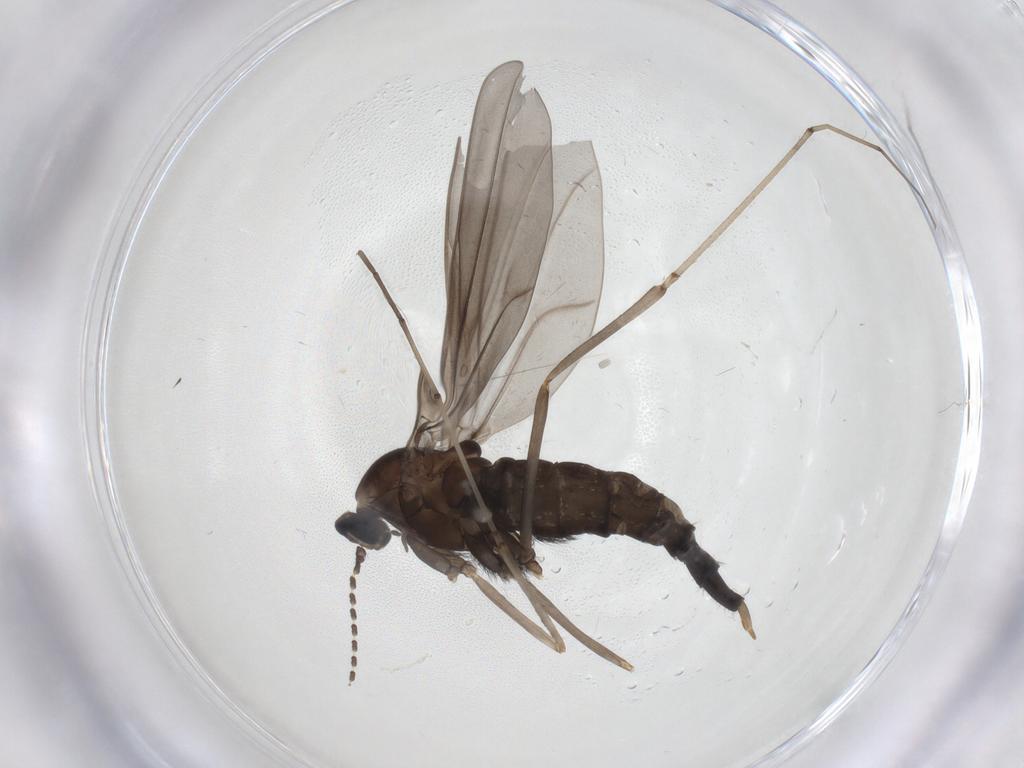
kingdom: Animalia
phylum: Arthropoda
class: Insecta
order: Diptera
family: Cecidomyiidae
